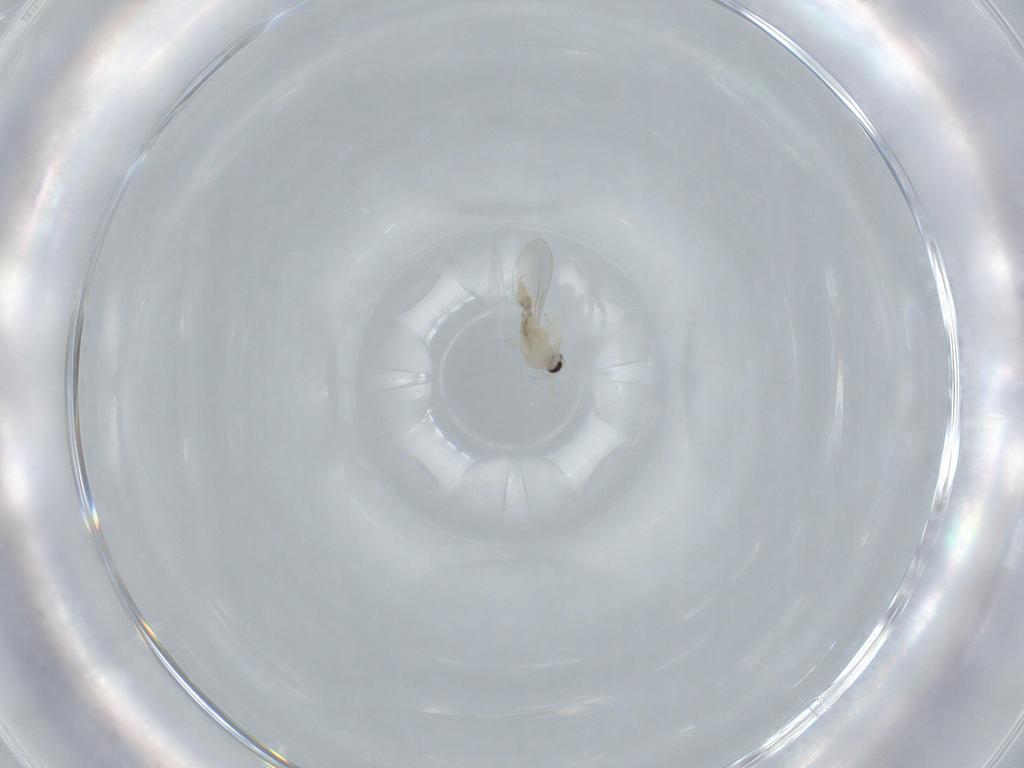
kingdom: Animalia
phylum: Arthropoda
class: Insecta
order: Diptera
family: Cecidomyiidae
